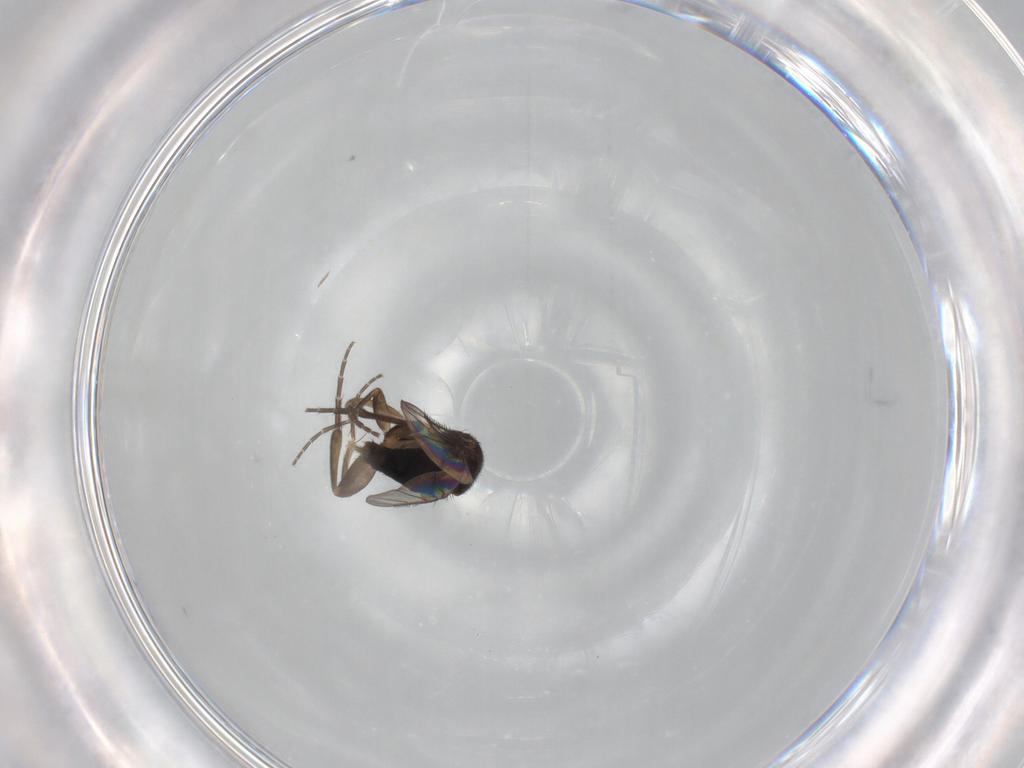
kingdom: Animalia
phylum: Arthropoda
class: Insecta
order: Diptera
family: Phoridae
